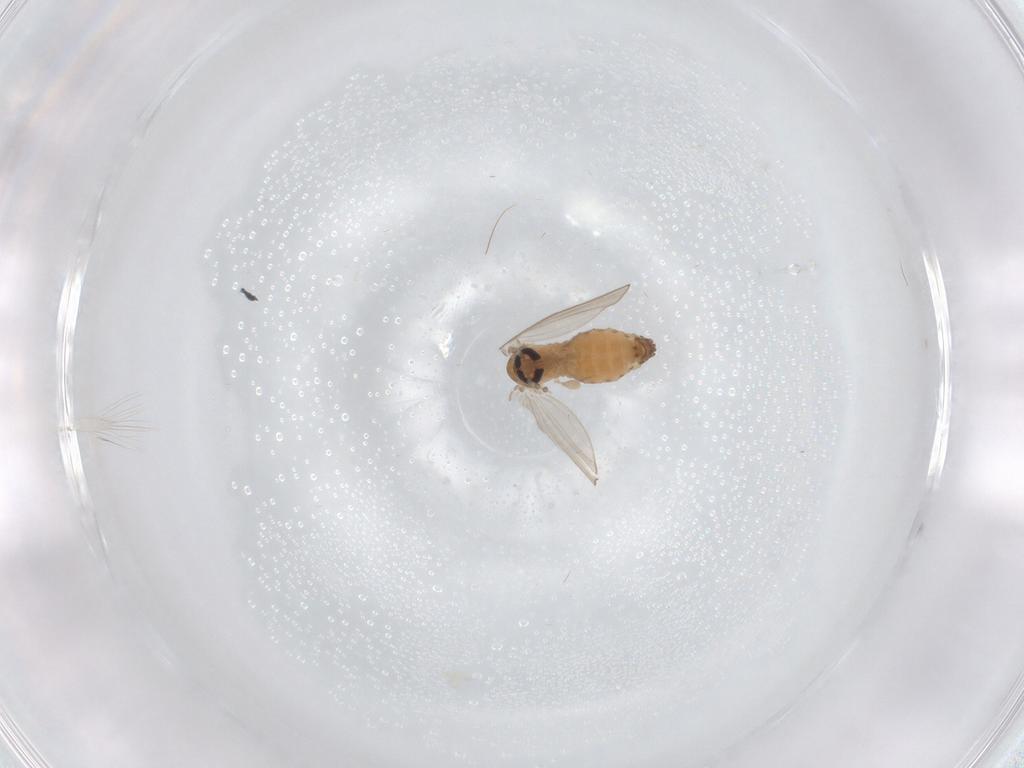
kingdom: Animalia
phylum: Arthropoda
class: Insecta
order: Diptera
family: Psychodidae
